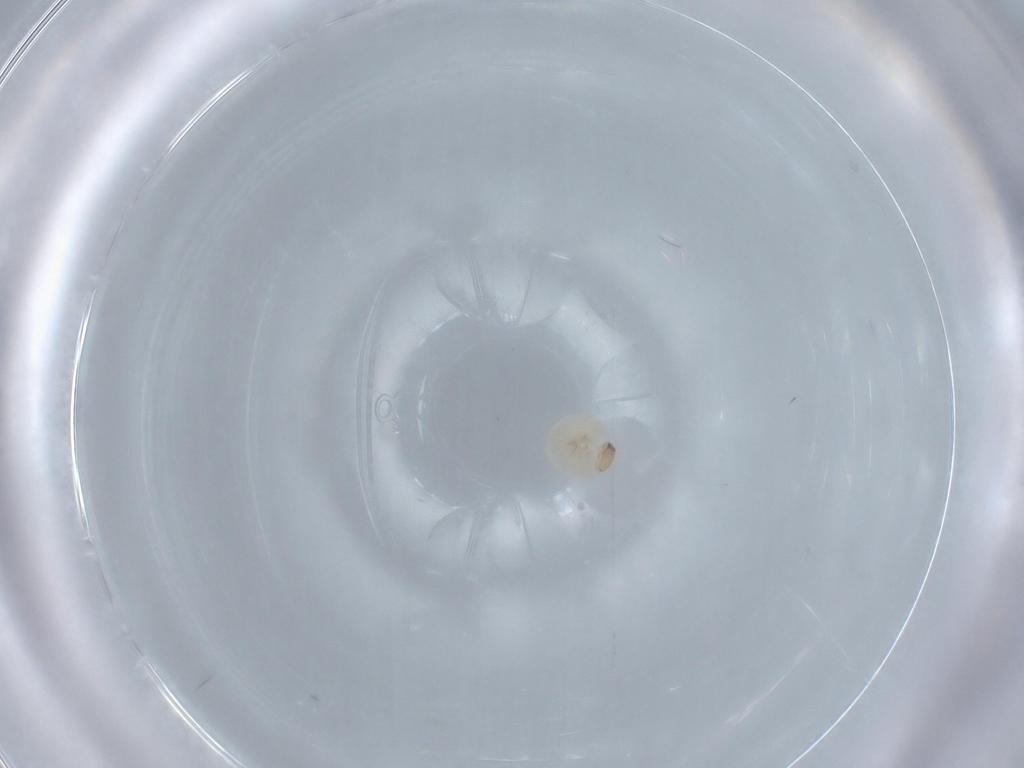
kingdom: Animalia
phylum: Arthropoda
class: Insecta
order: Coleoptera
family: Chrysomelidae
